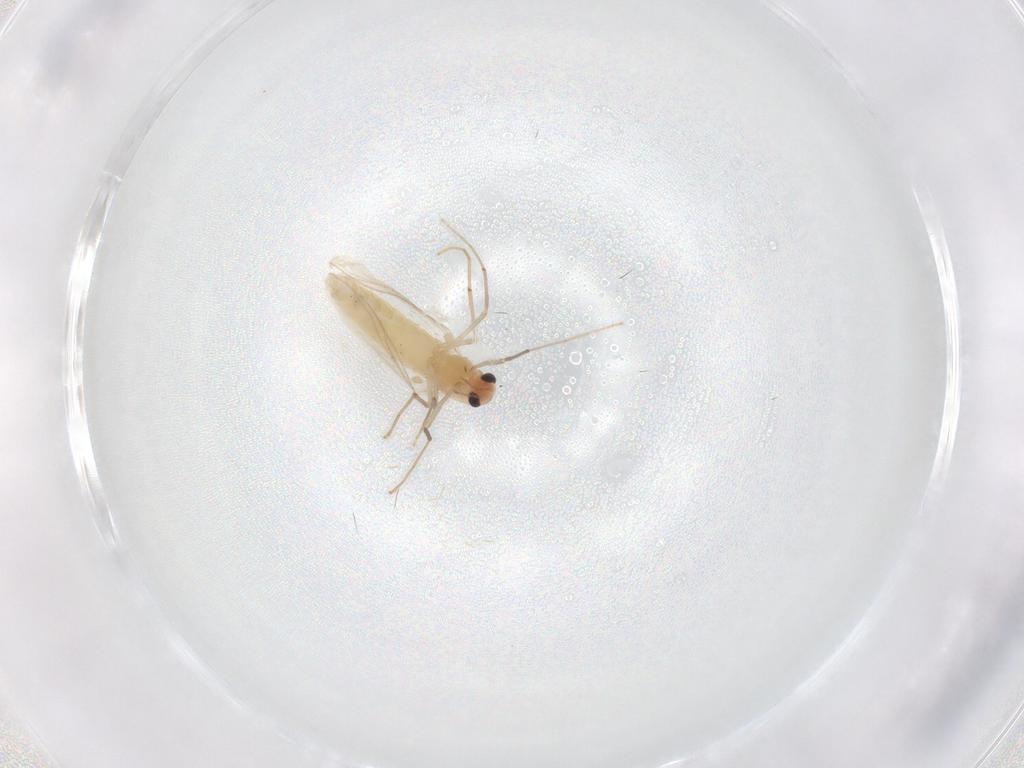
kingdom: Animalia
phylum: Arthropoda
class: Insecta
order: Diptera
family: Chironomidae
